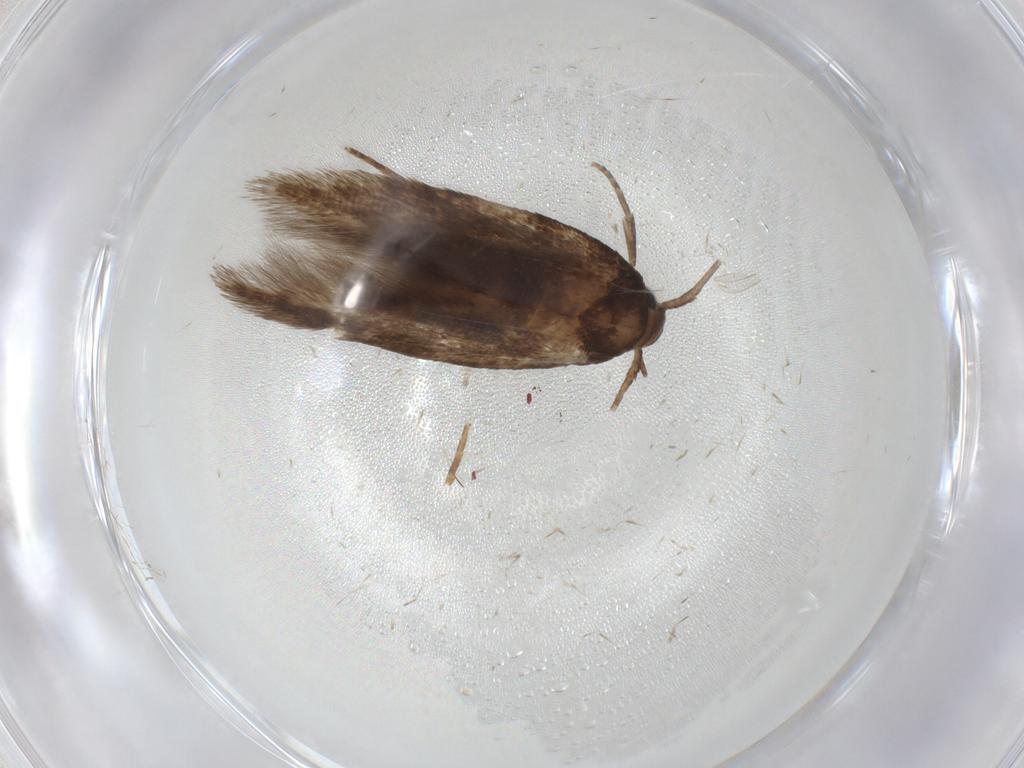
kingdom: Animalia
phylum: Arthropoda
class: Insecta
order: Lepidoptera
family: Cosmopterigidae
